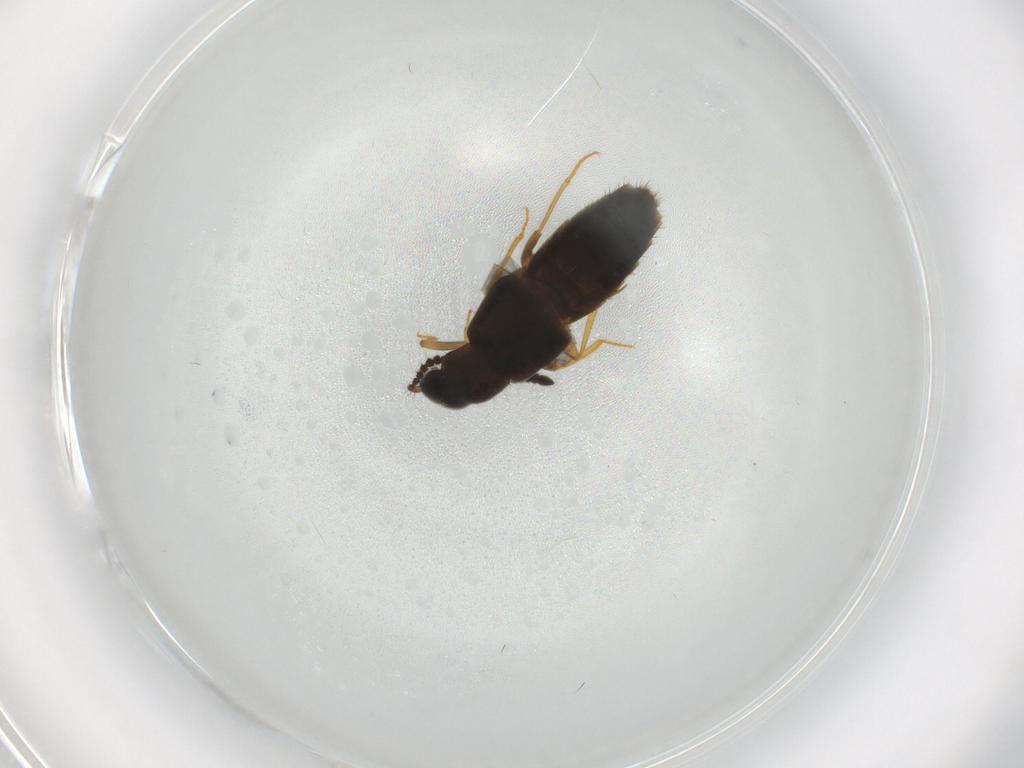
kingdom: Animalia
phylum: Arthropoda
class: Insecta
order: Coleoptera
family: Staphylinidae
